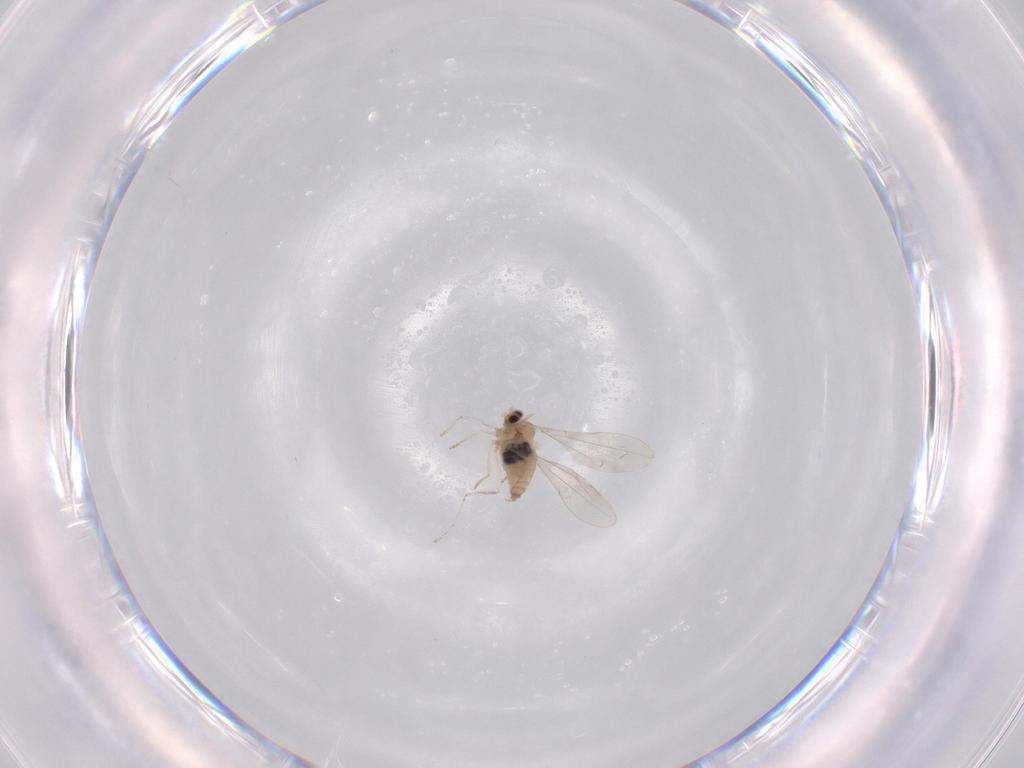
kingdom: Animalia
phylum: Arthropoda
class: Insecta
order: Diptera
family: Cecidomyiidae
